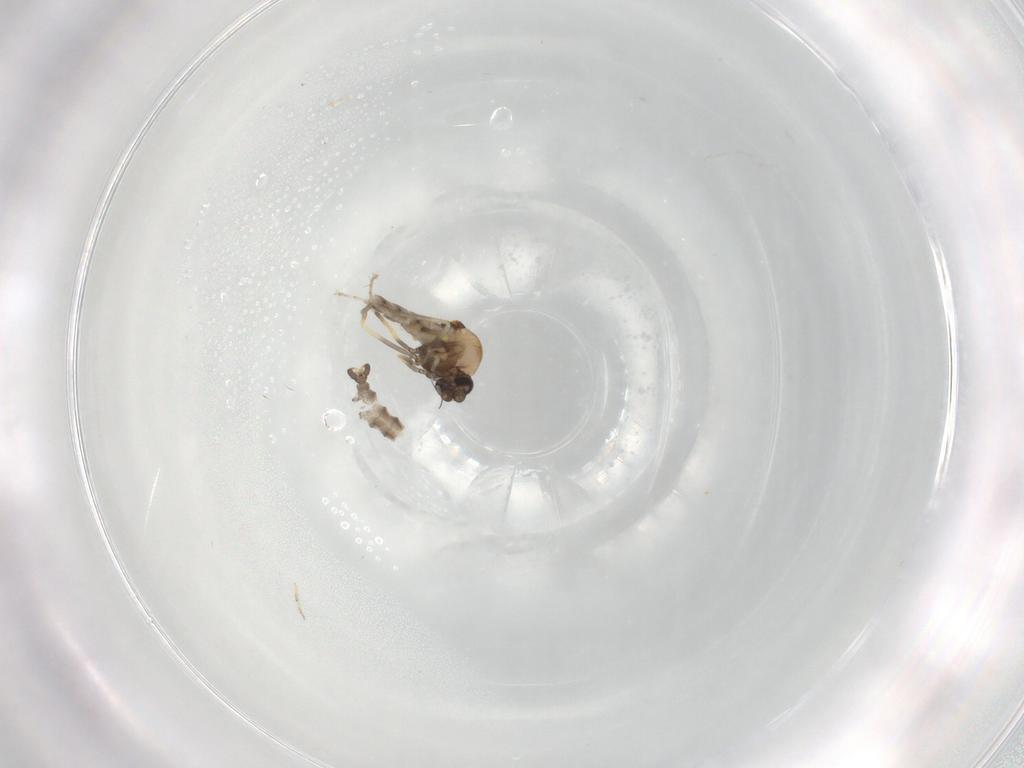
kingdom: Animalia
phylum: Arthropoda
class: Insecta
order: Diptera
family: Ceratopogonidae
